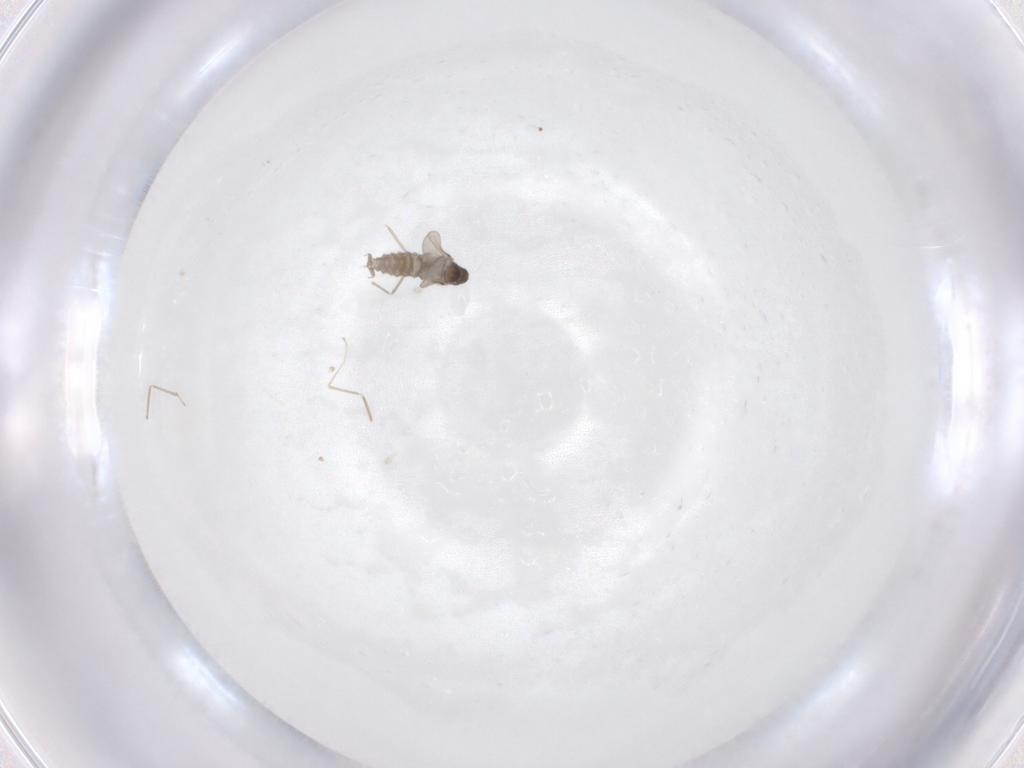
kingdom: Animalia
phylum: Arthropoda
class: Insecta
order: Diptera
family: Cecidomyiidae
